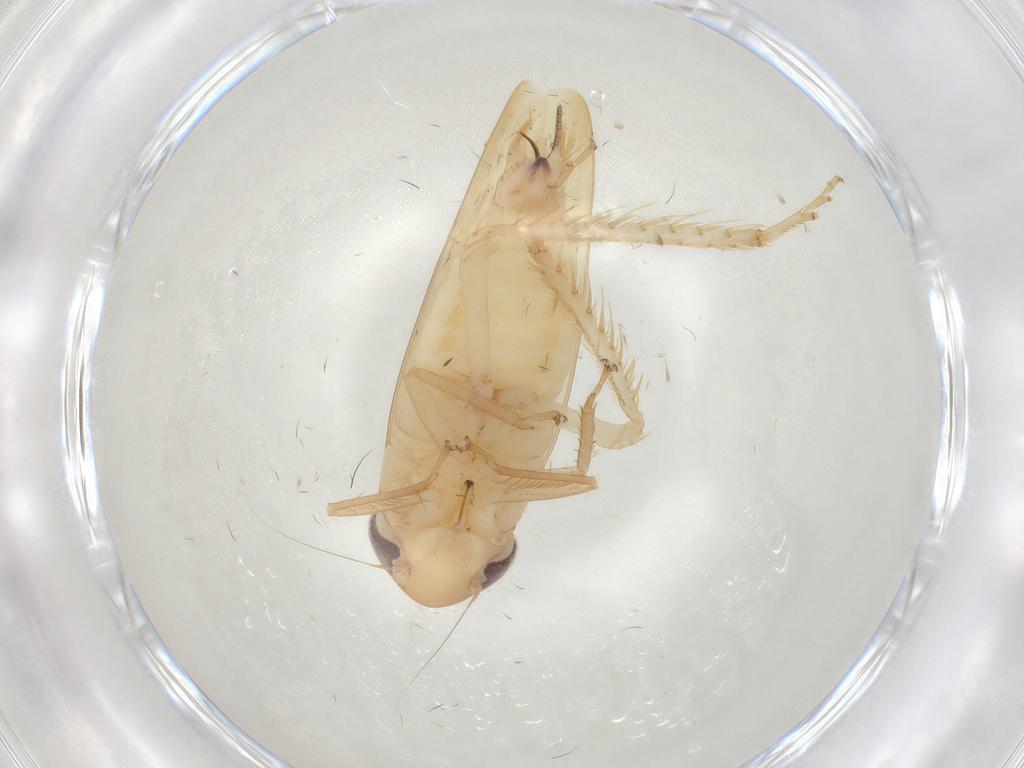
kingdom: Animalia
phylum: Arthropoda
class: Insecta
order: Hemiptera
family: Cicadellidae
